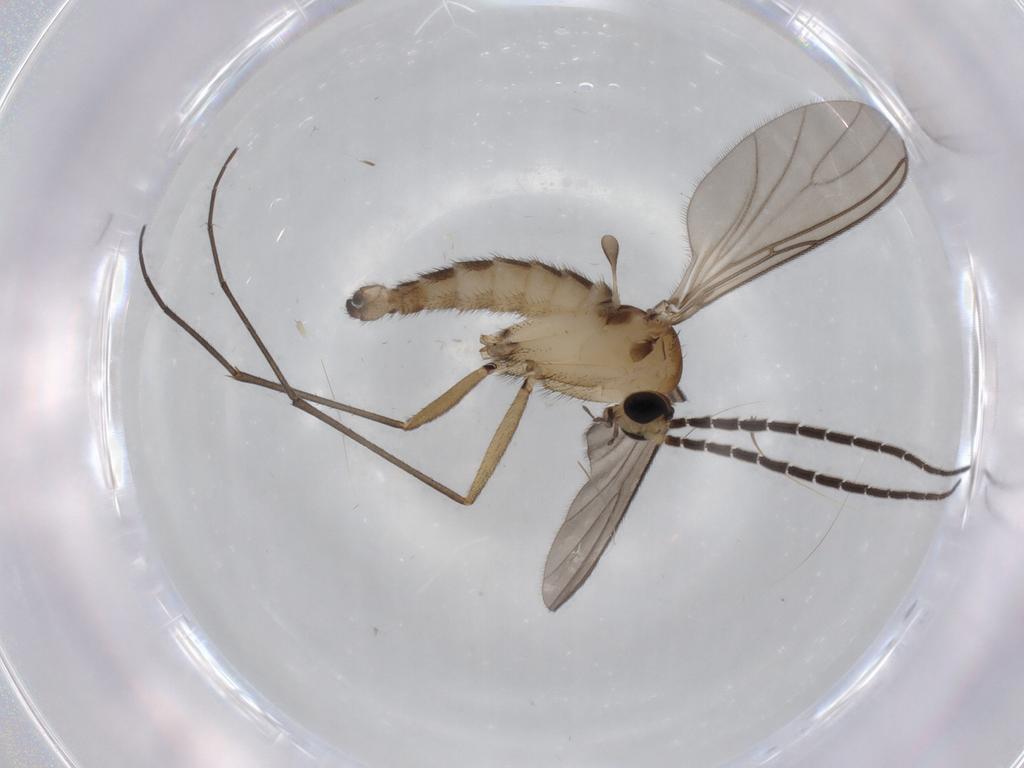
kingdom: Animalia
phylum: Arthropoda
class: Insecta
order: Diptera
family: Sciaridae
